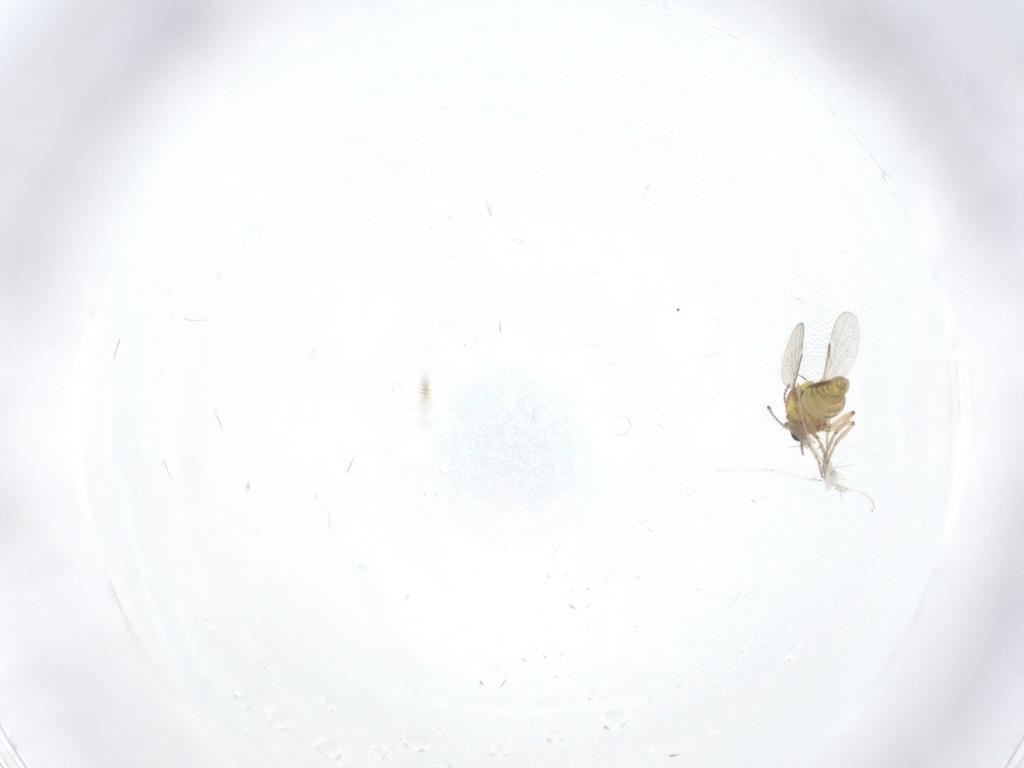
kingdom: Animalia
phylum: Arthropoda
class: Insecta
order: Diptera
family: Ceratopogonidae
